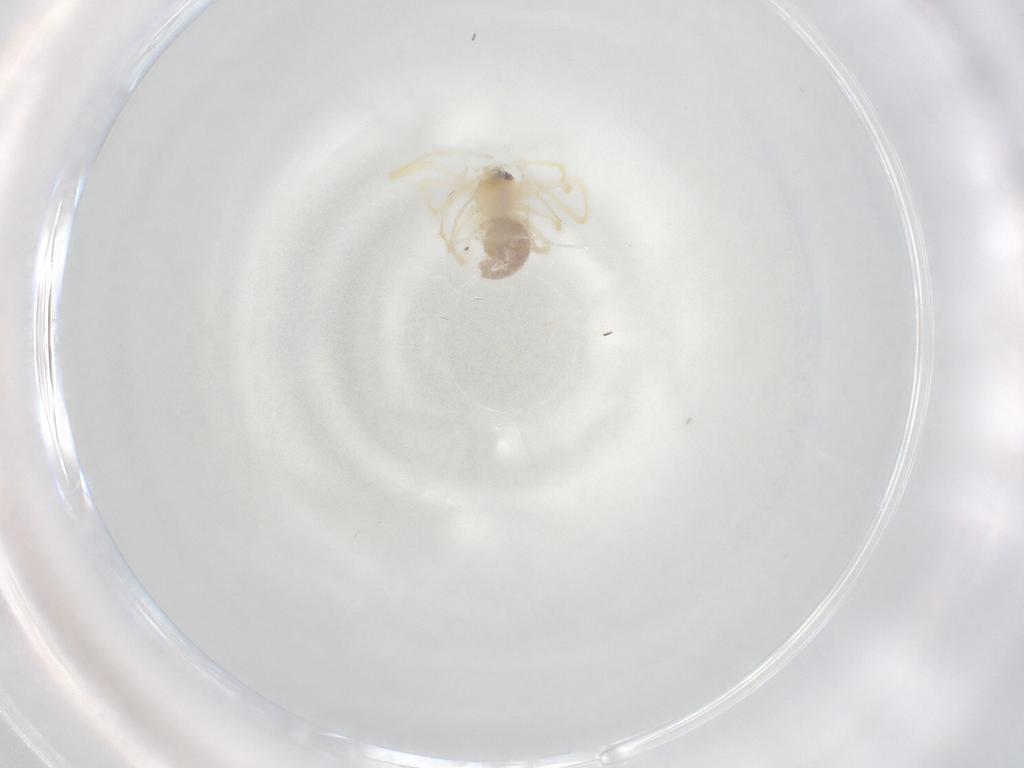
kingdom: Animalia
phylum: Arthropoda
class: Arachnida
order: Araneae
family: Pholcidae
